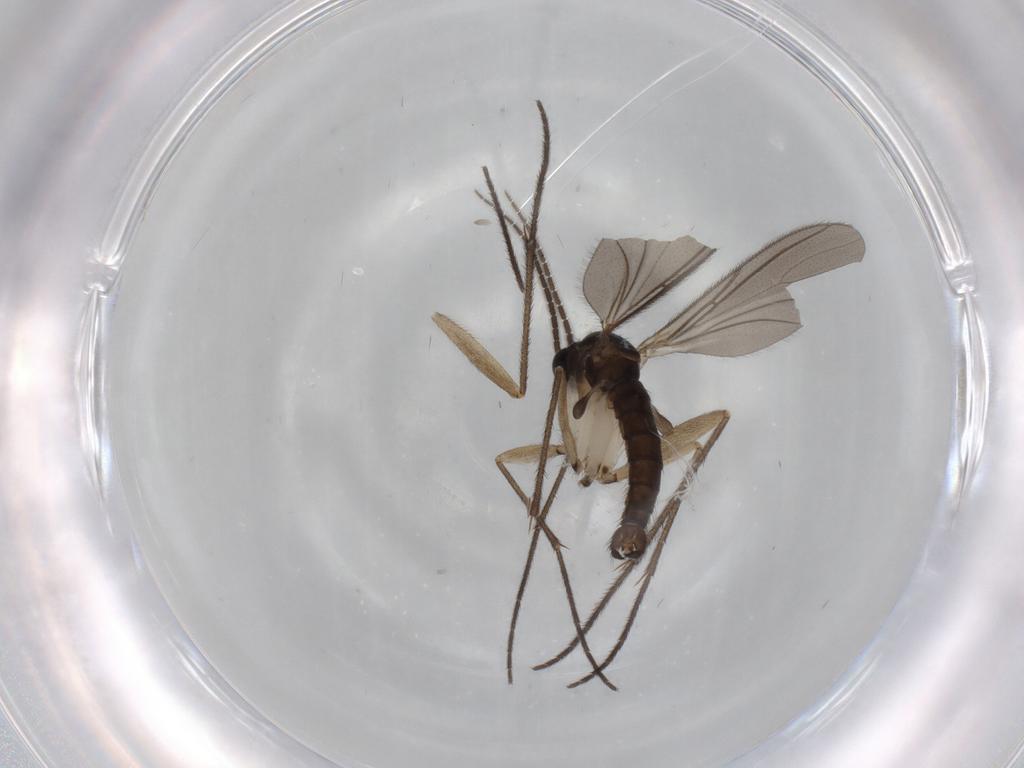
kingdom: Animalia
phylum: Arthropoda
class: Insecta
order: Diptera
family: Sciaridae
